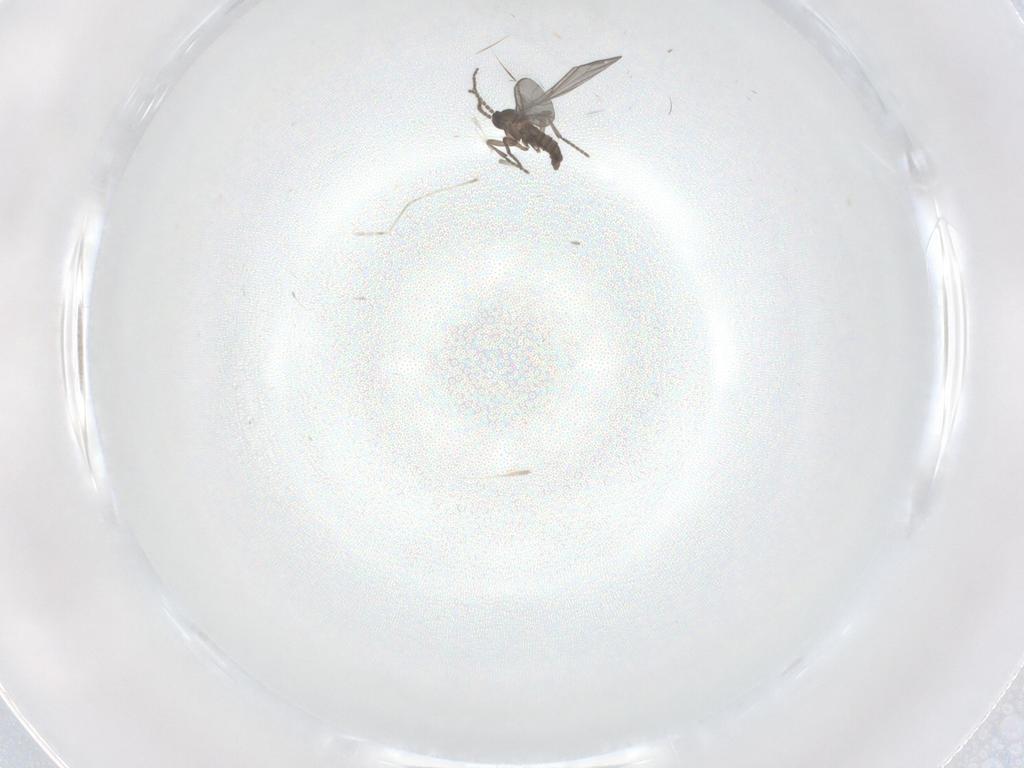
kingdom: Animalia
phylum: Arthropoda
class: Insecta
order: Diptera
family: Sciaridae
